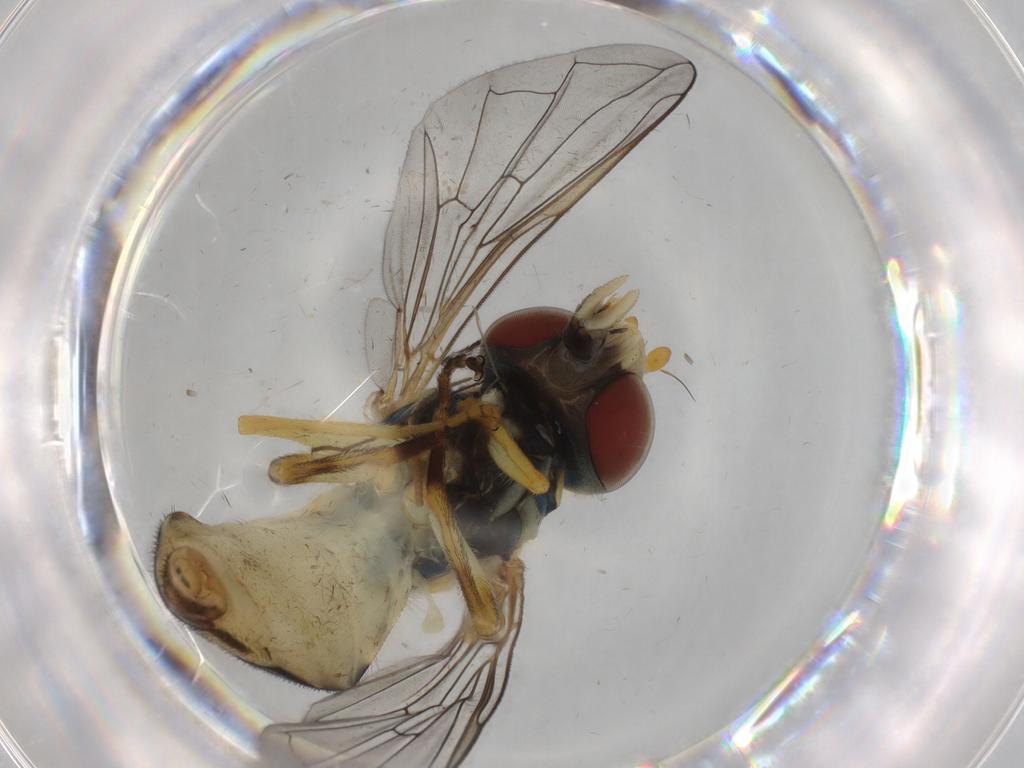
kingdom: Animalia
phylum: Arthropoda
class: Insecta
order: Diptera
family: Syrphidae
